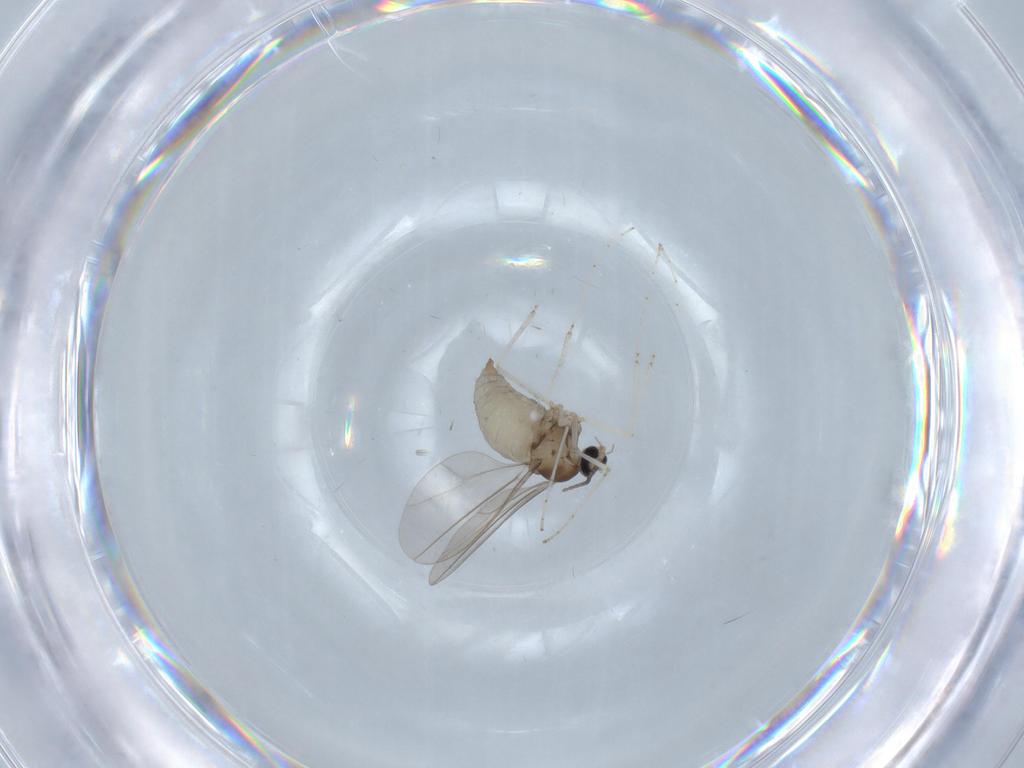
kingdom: Animalia
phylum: Arthropoda
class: Insecta
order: Diptera
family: Cecidomyiidae
